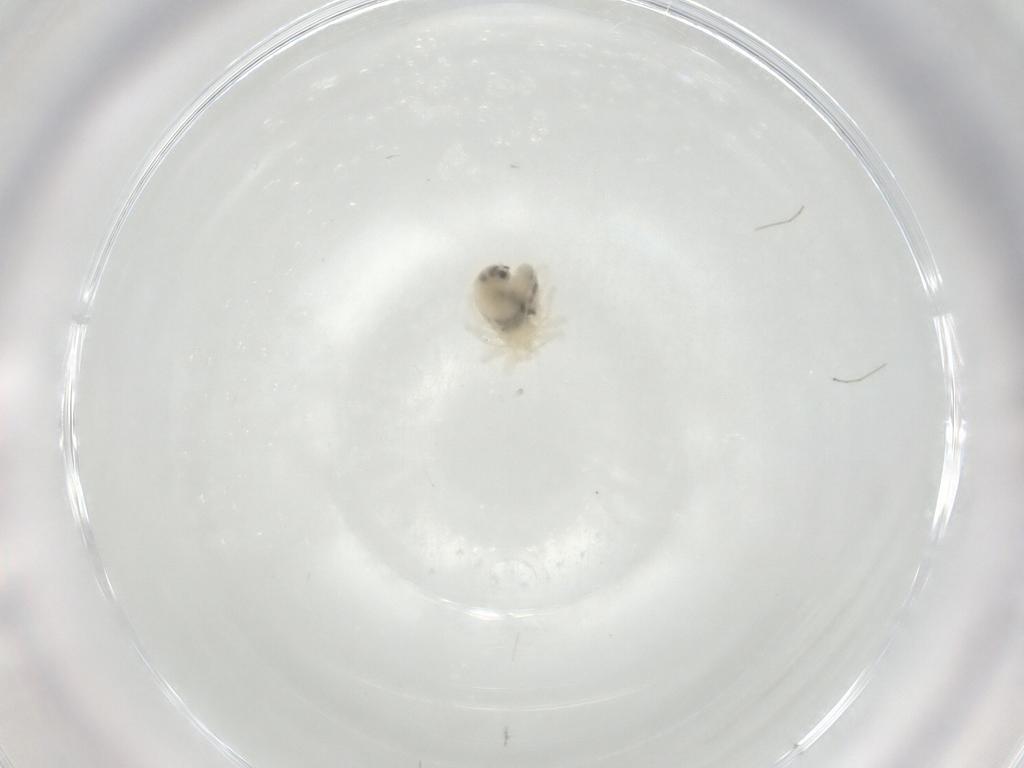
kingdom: Animalia
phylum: Arthropoda
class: Arachnida
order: Trombidiformes
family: Anystidae
